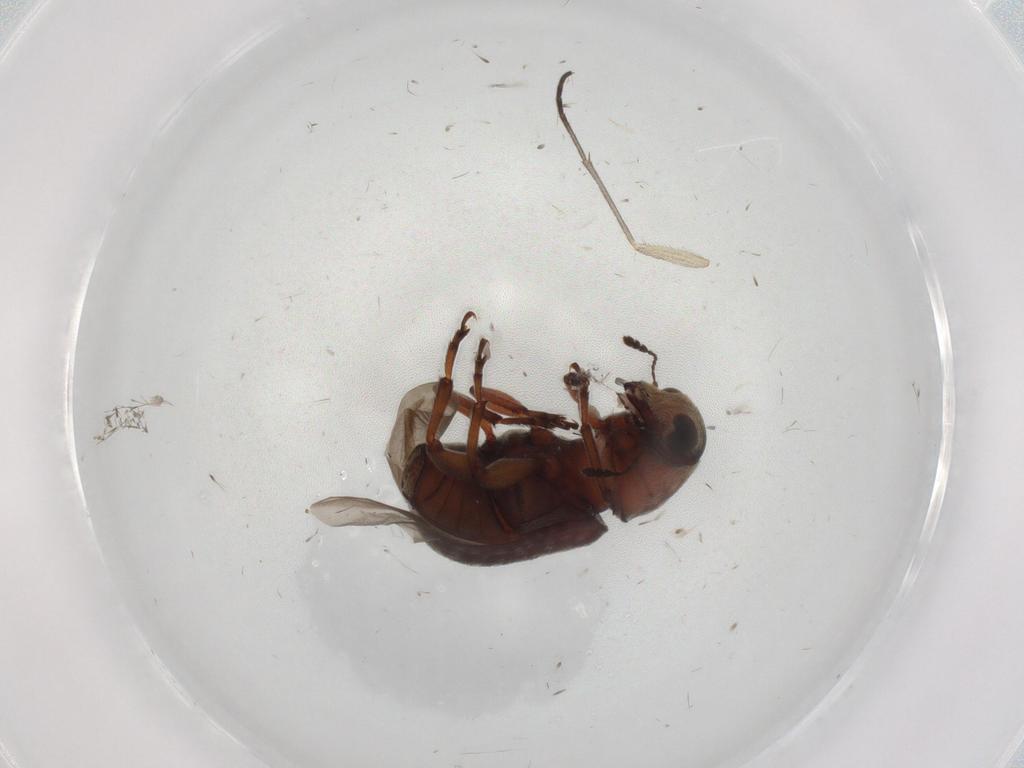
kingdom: Animalia
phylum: Arthropoda
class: Insecta
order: Coleoptera
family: Anthribidae
